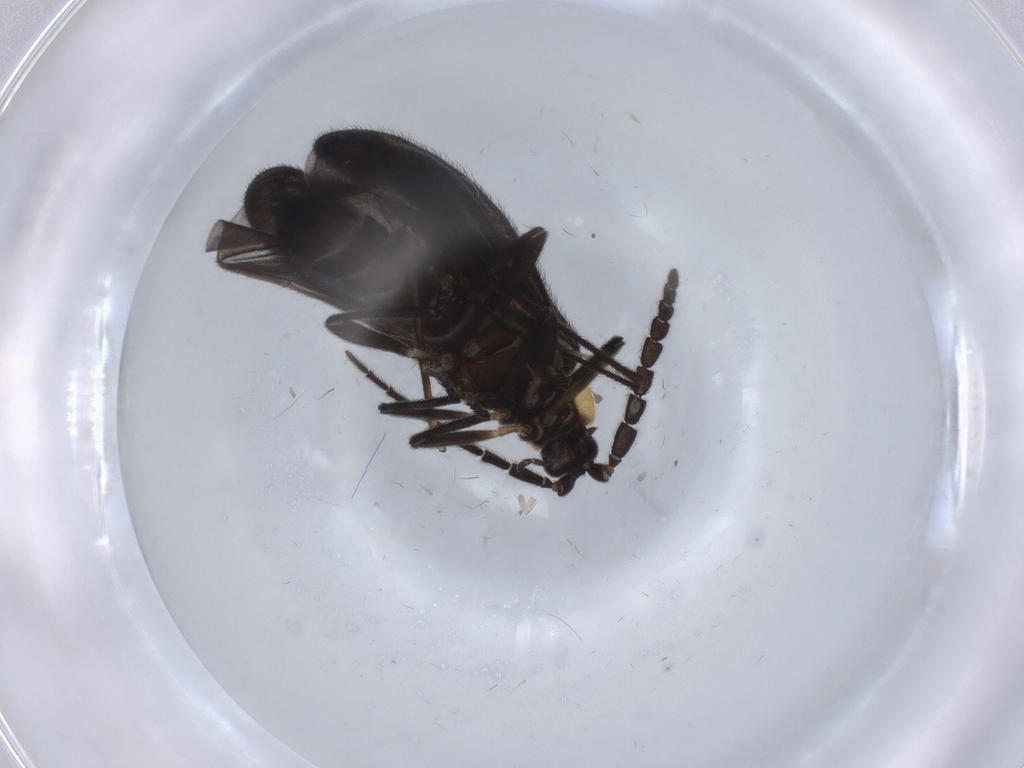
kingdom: Animalia
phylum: Arthropoda
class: Insecta
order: Coleoptera
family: Lycidae
